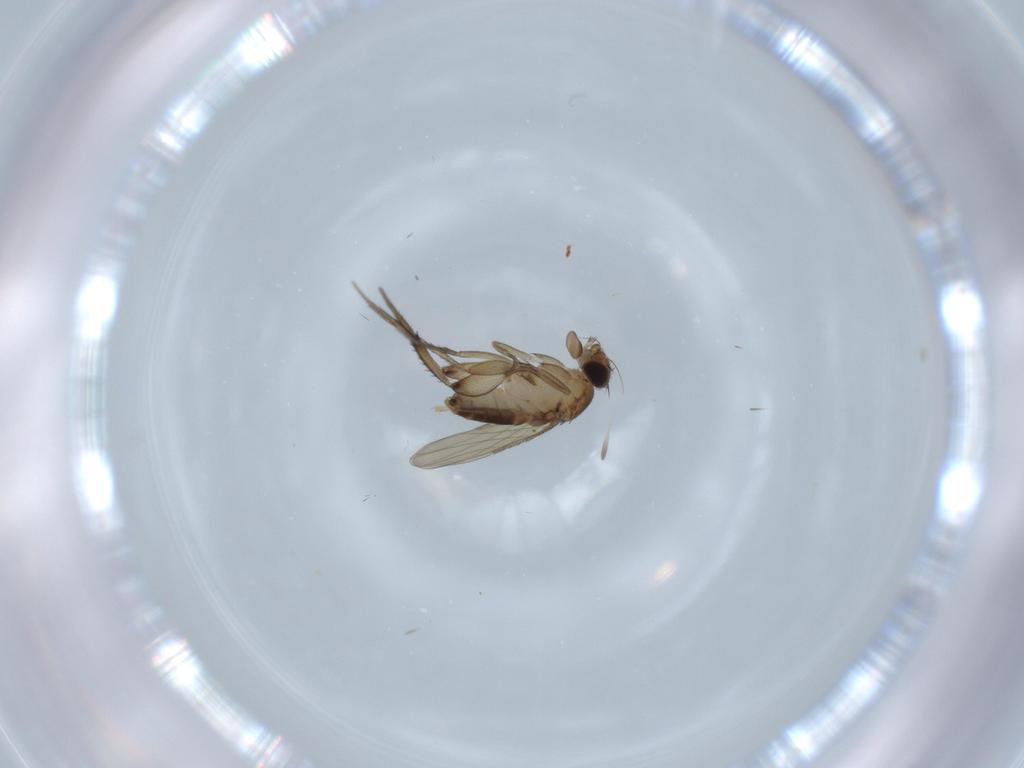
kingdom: Animalia
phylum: Arthropoda
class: Insecta
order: Diptera
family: Phoridae
